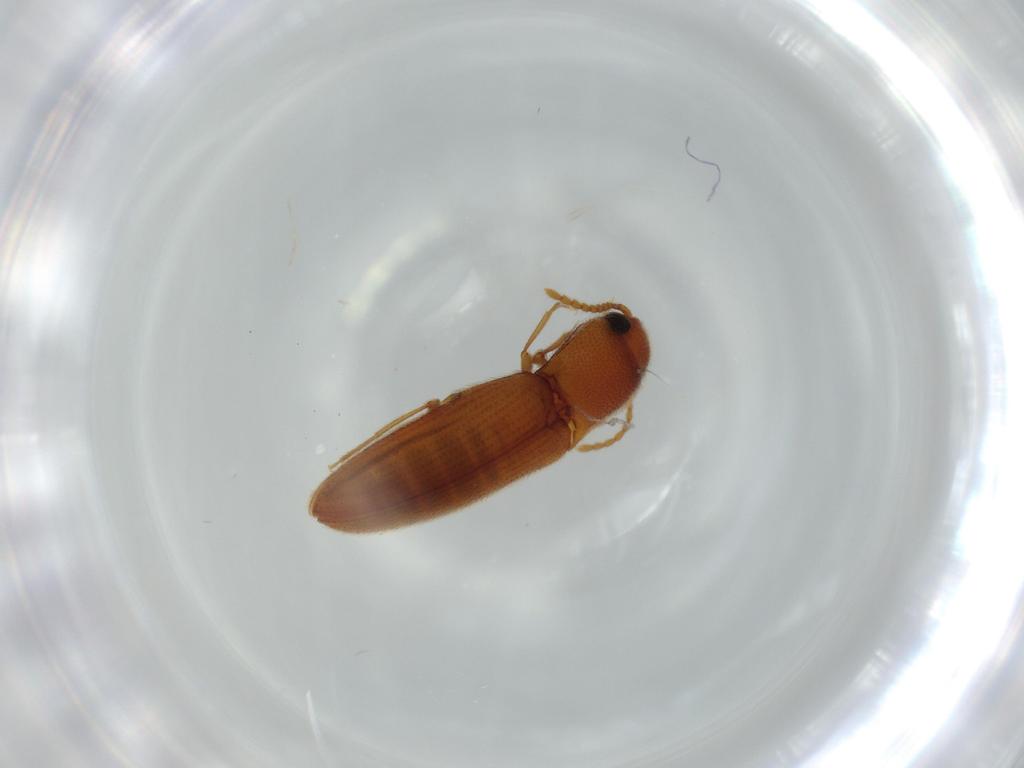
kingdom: Animalia
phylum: Arthropoda
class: Insecta
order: Coleoptera
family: Elateridae
